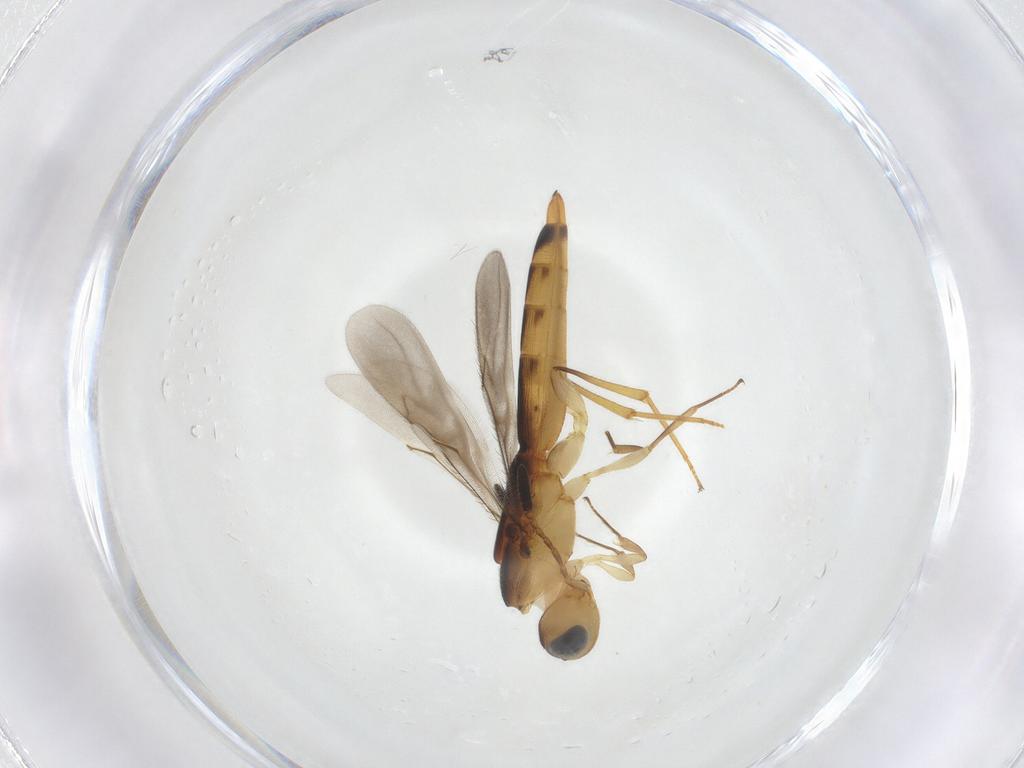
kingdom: Animalia
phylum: Arthropoda
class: Insecta
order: Hymenoptera
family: Scelionidae
